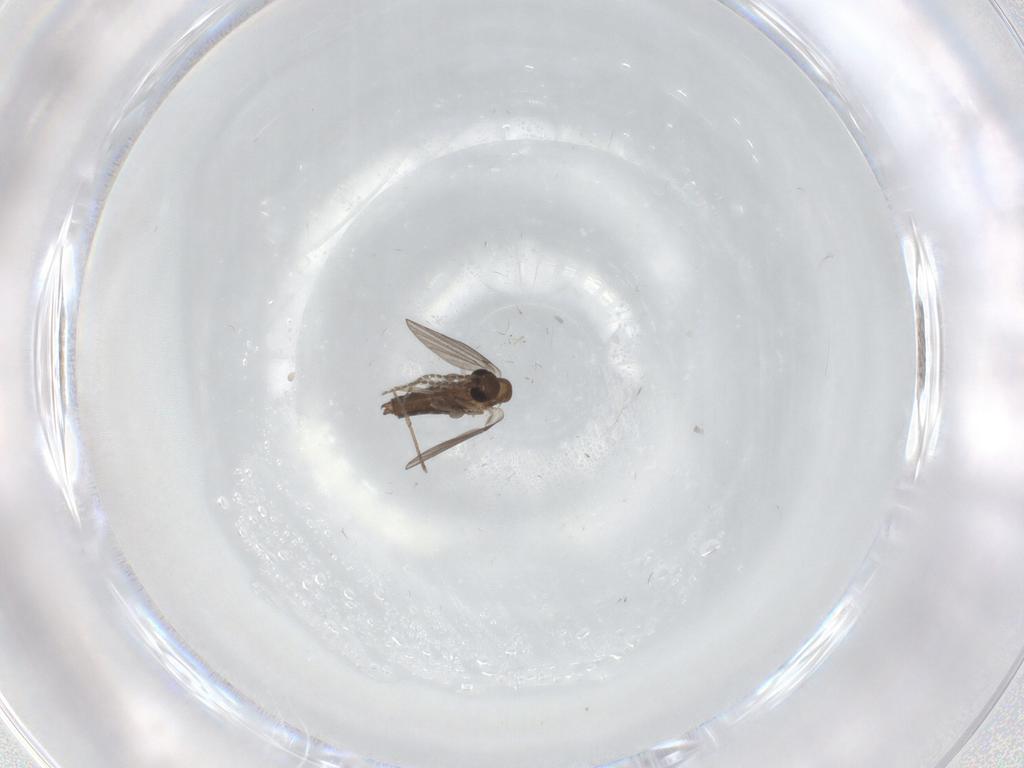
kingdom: Animalia
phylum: Arthropoda
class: Insecta
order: Diptera
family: Chironomidae
